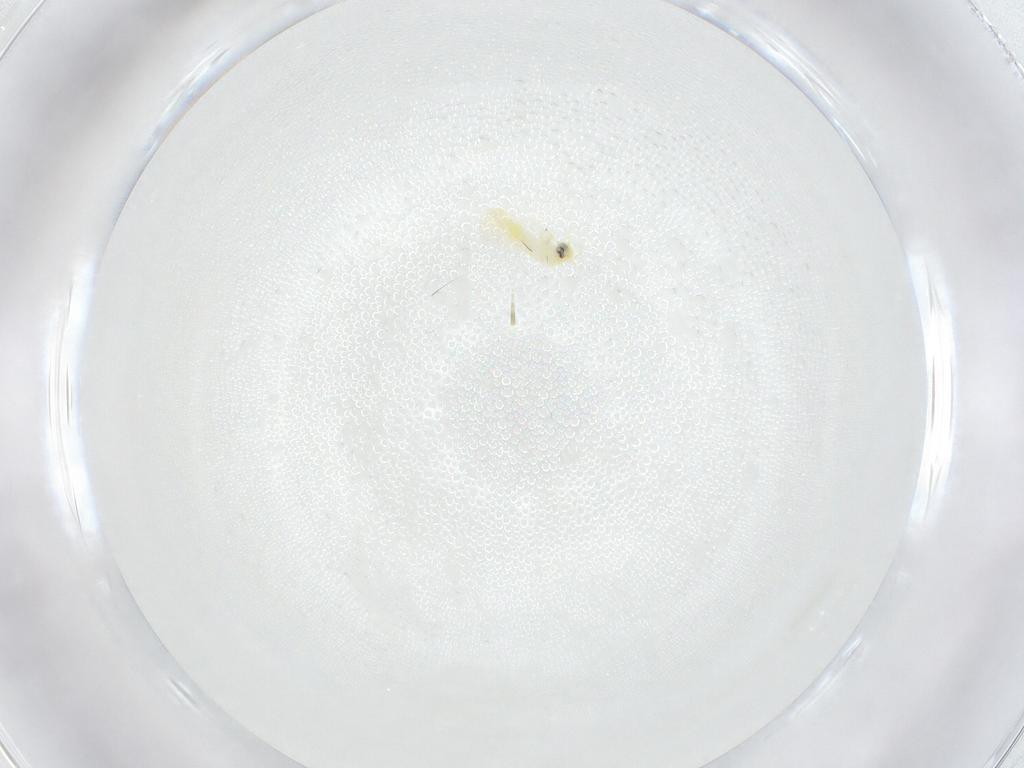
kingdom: Animalia
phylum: Arthropoda
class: Insecta
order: Hemiptera
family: Aleyrodidae
